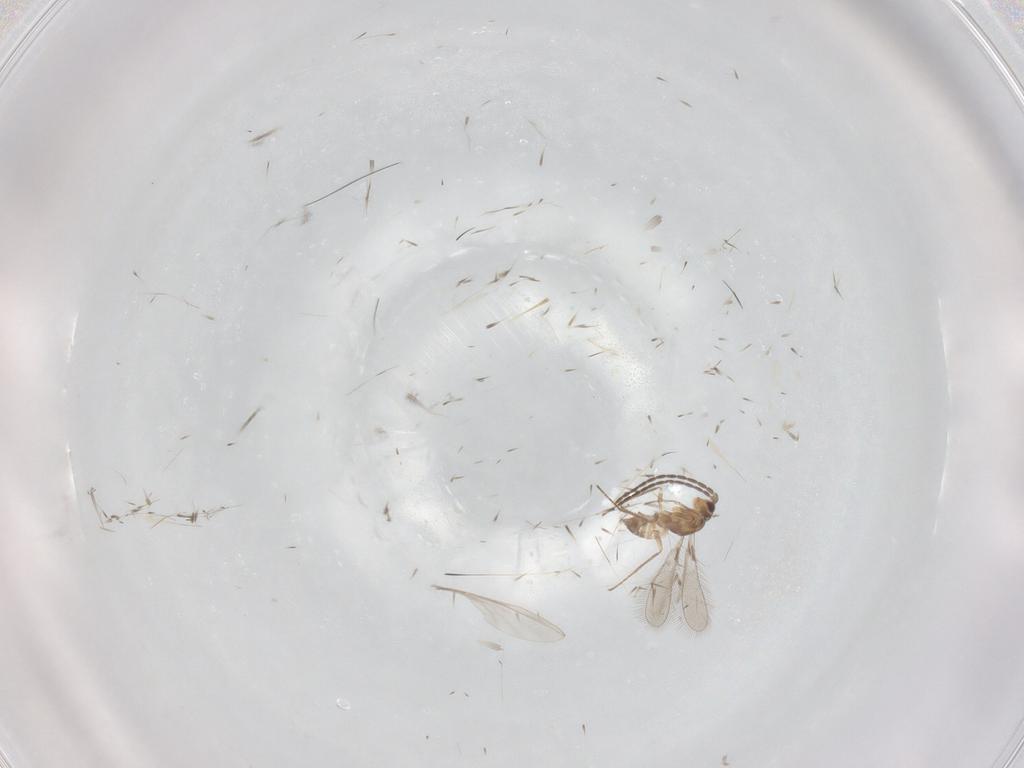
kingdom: Animalia
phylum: Arthropoda
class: Insecta
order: Hymenoptera
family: Mymaridae
